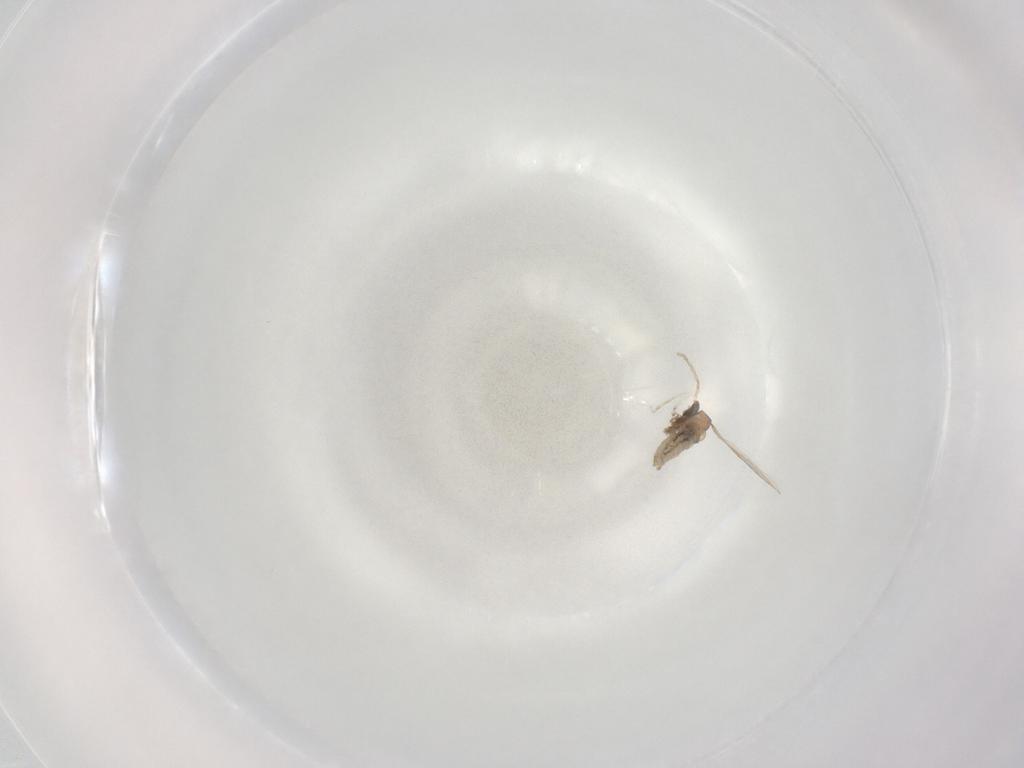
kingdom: Animalia
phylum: Arthropoda
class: Insecta
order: Diptera
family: Cecidomyiidae
